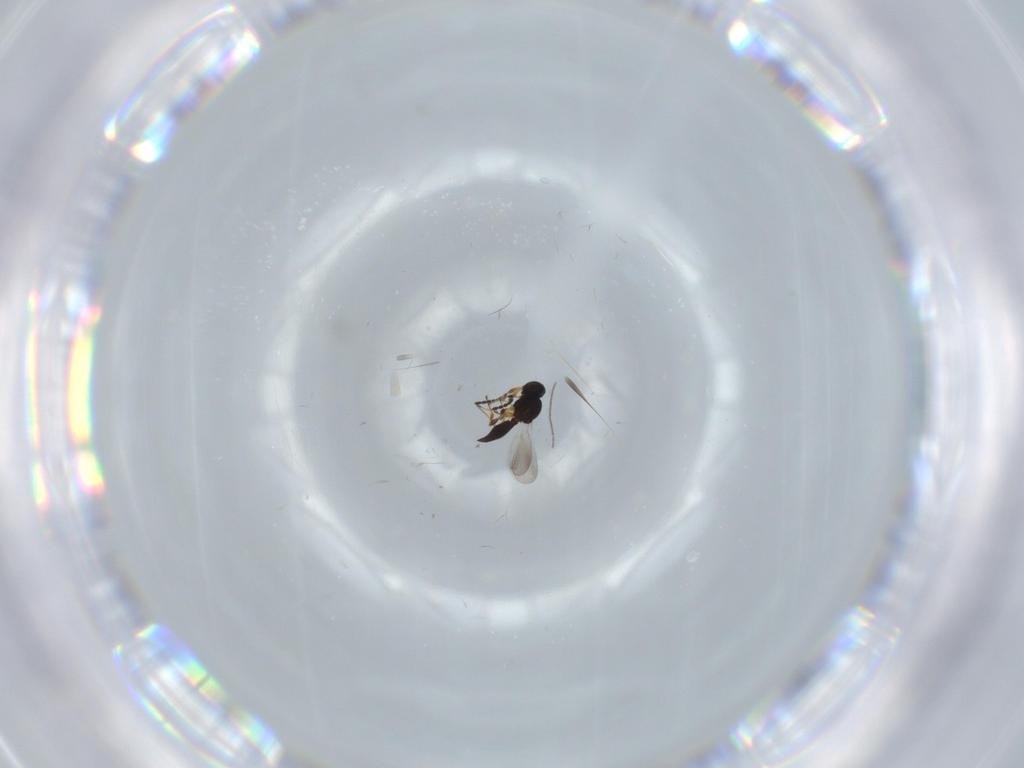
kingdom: Animalia
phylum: Arthropoda
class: Insecta
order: Hymenoptera
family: Platygastridae
